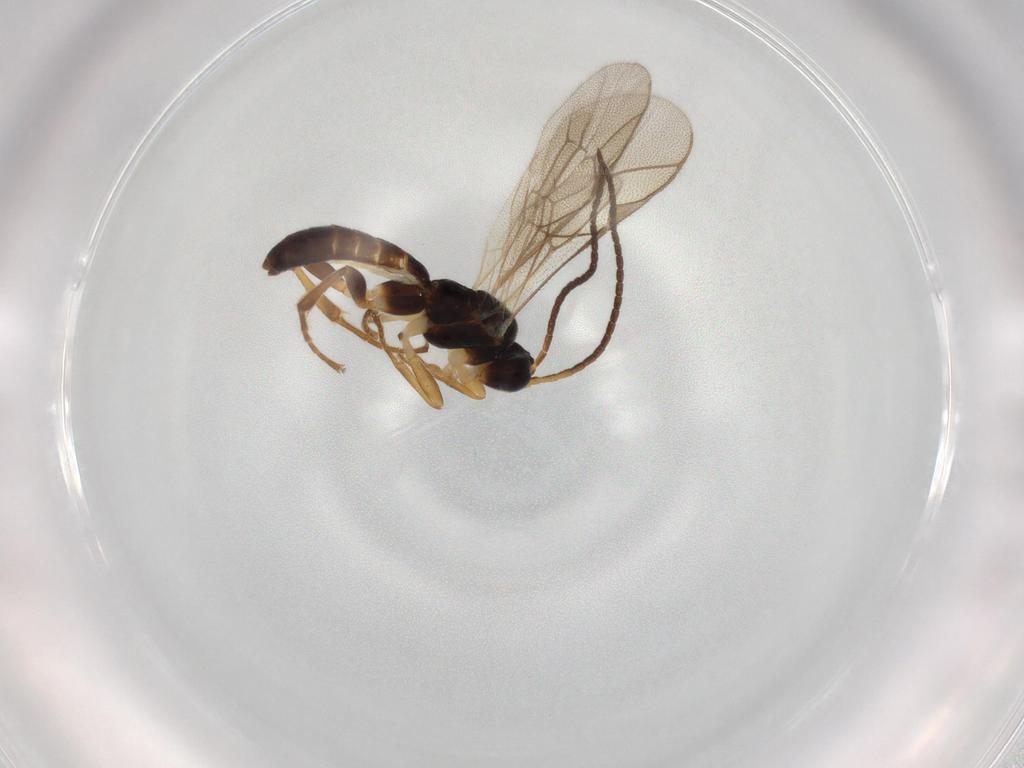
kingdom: Animalia
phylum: Arthropoda
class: Insecta
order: Hymenoptera
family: Ichneumonidae
